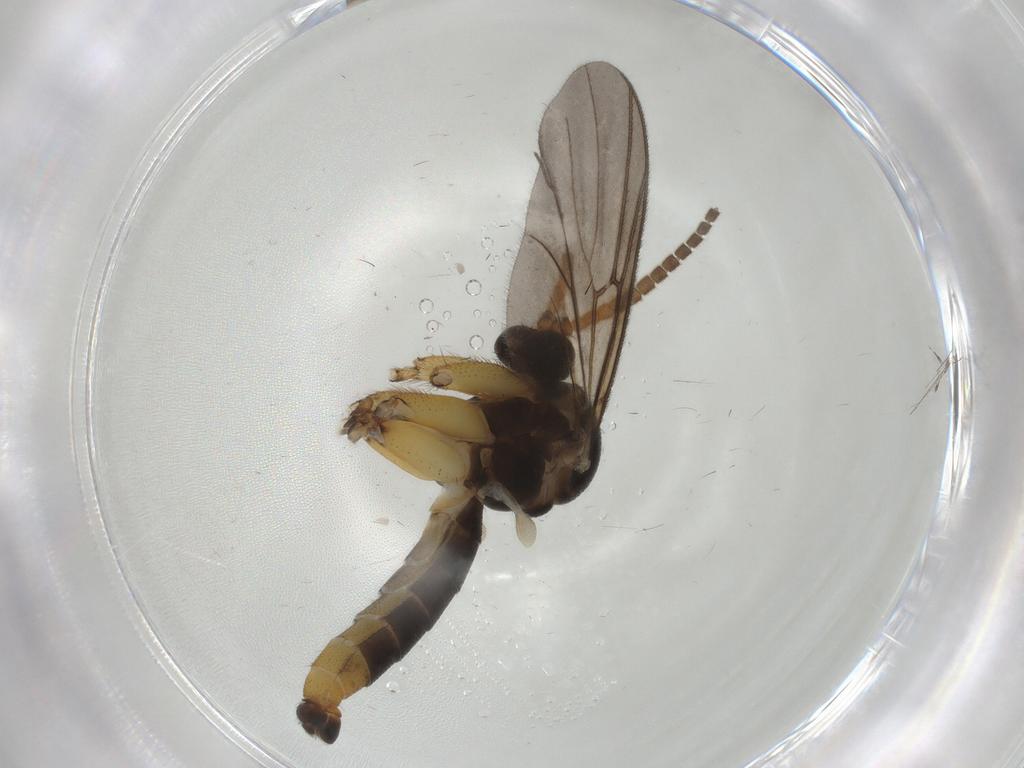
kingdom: Animalia
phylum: Arthropoda
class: Insecta
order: Diptera
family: Mycetophilidae
